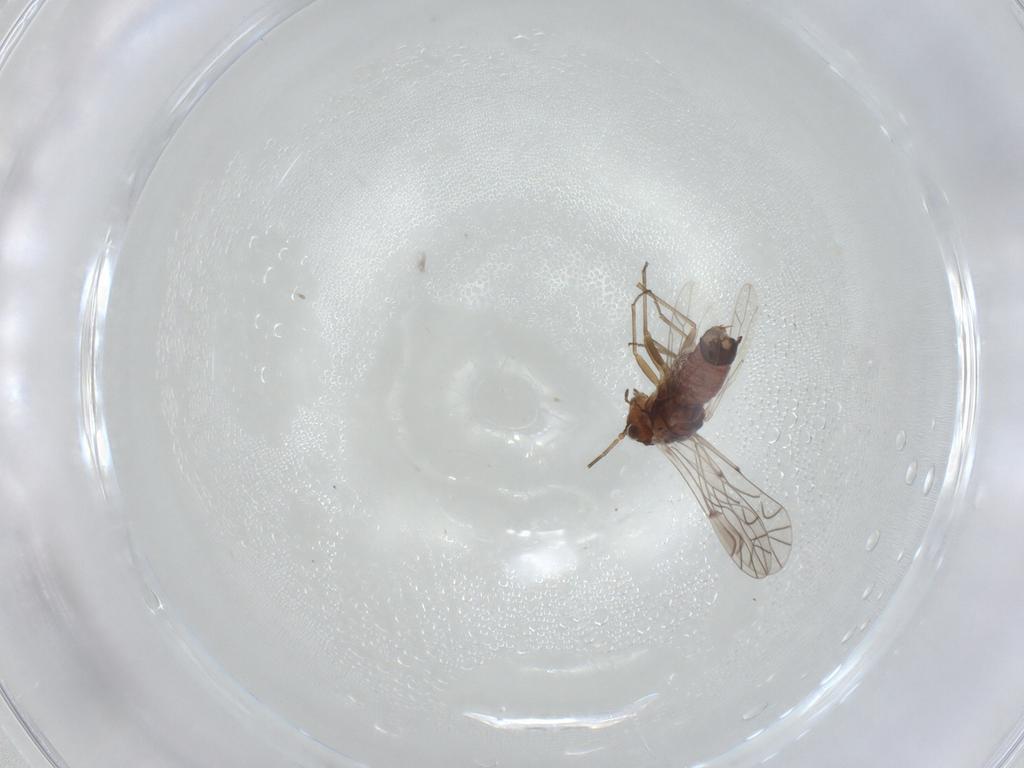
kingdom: Animalia
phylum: Arthropoda
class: Insecta
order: Psocodea
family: Lachesillidae
